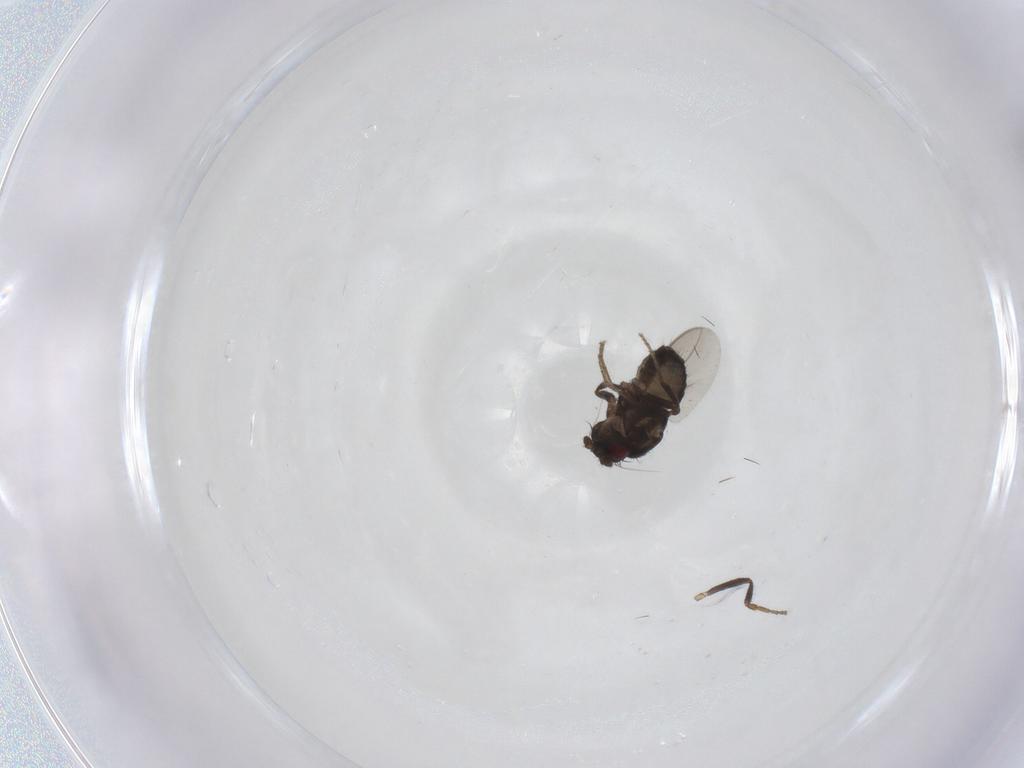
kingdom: Animalia
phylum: Arthropoda
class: Insecta
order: Diptera
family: Sphaeroceridae
